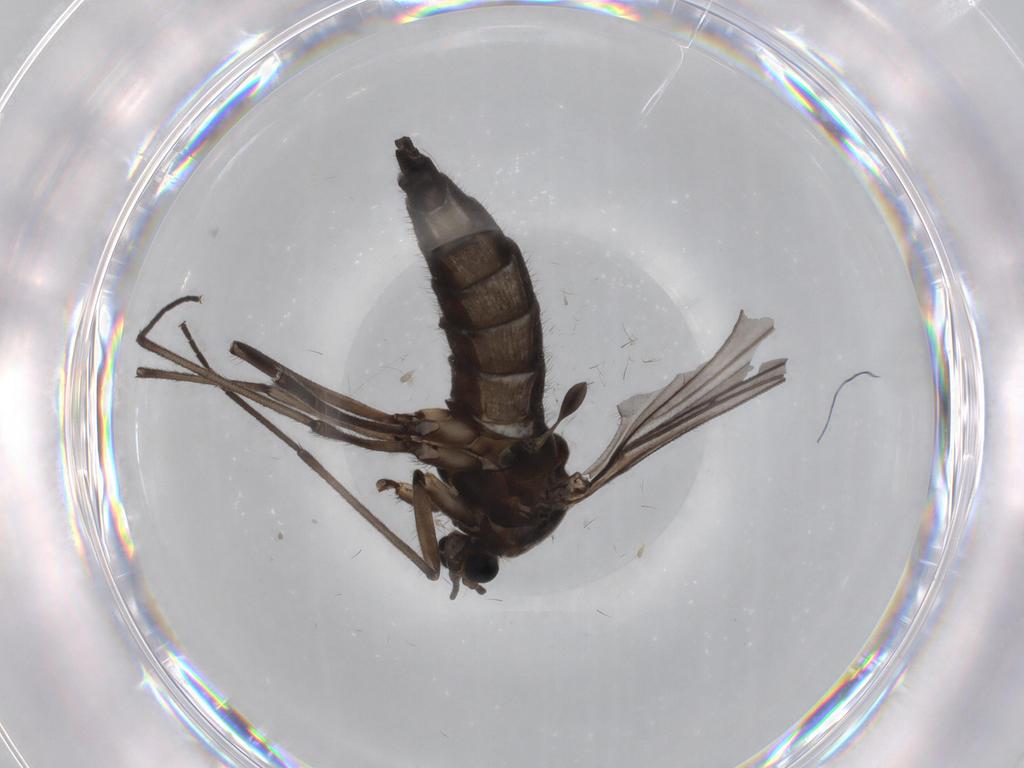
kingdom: Animalia
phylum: Arthropoda
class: Insecta
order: Diptera
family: Sciaridae
